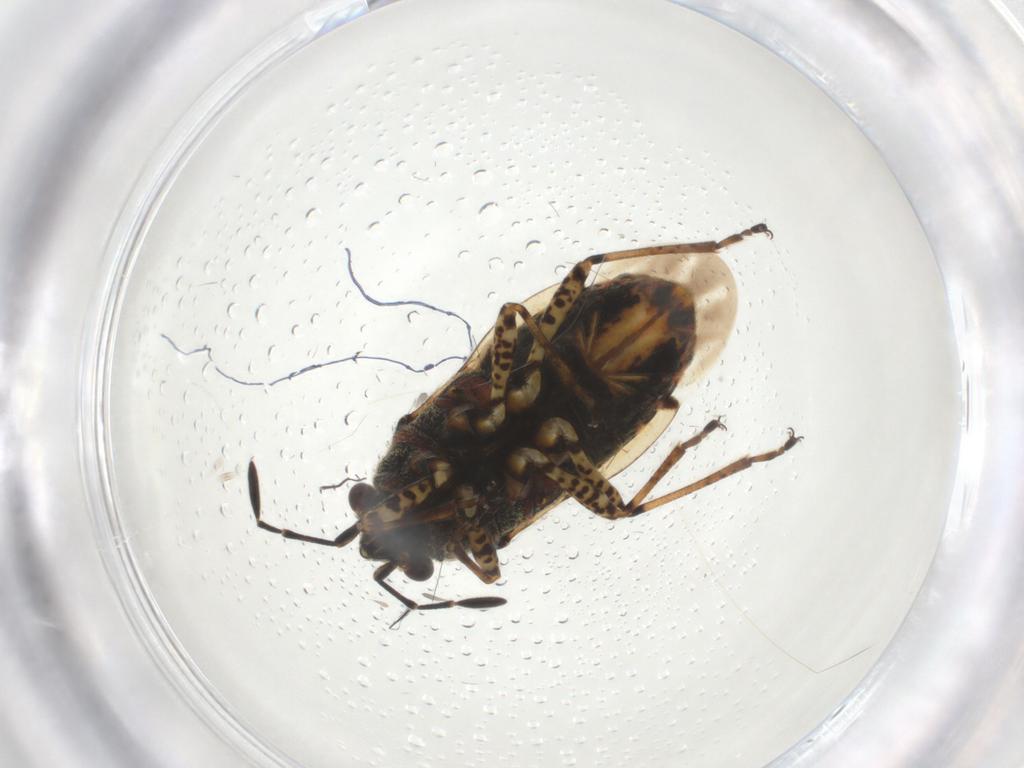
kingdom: Animalia
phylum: Arthropoda
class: Insecta
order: Hemiptera
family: Lygaeidae
